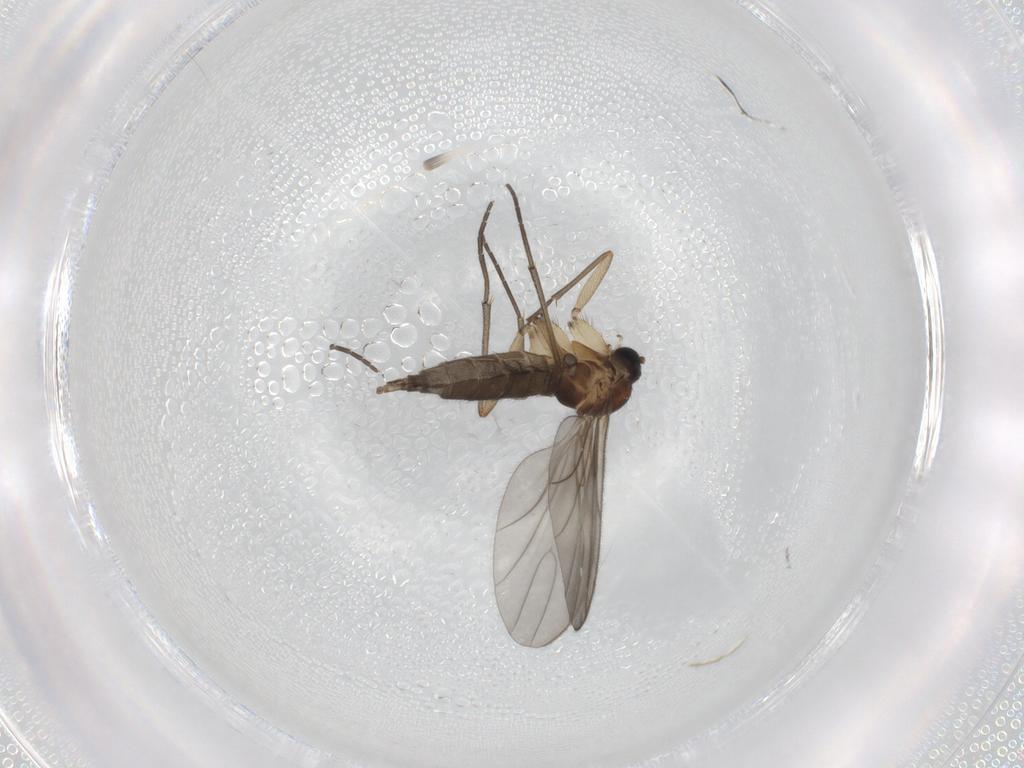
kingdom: Animalia
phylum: Arthropoda
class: Insecta
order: Diptera
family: Sciaridae
